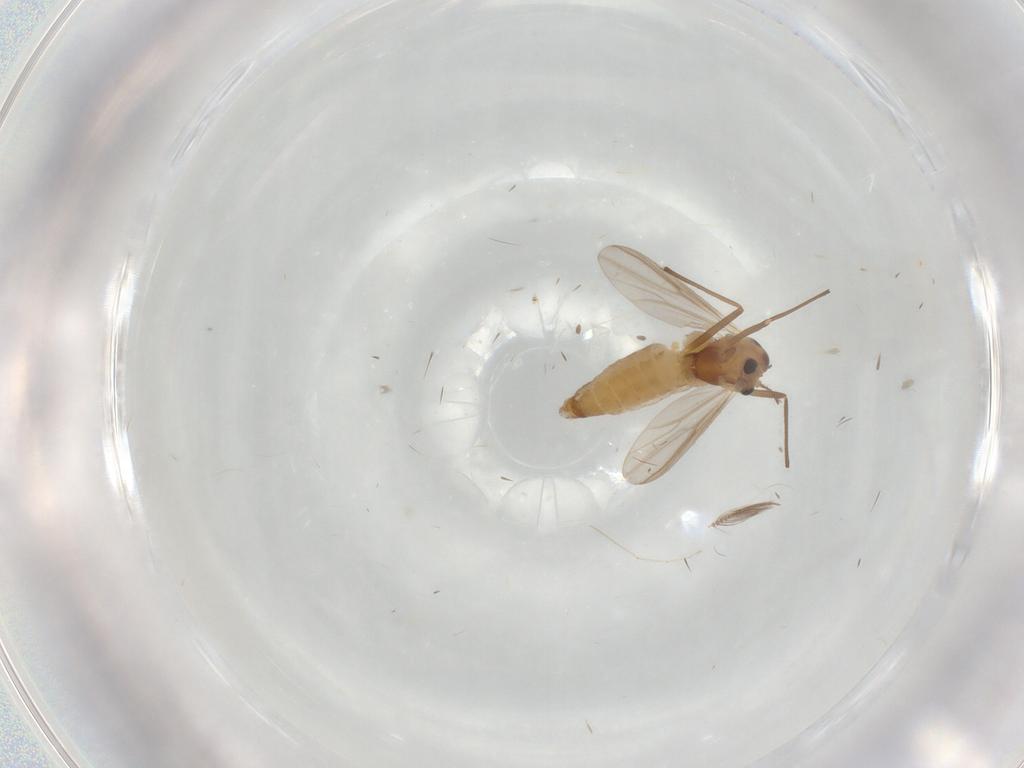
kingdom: Animalia
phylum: Arthropoda
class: Insecta
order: Diptera
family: Chironomidae
